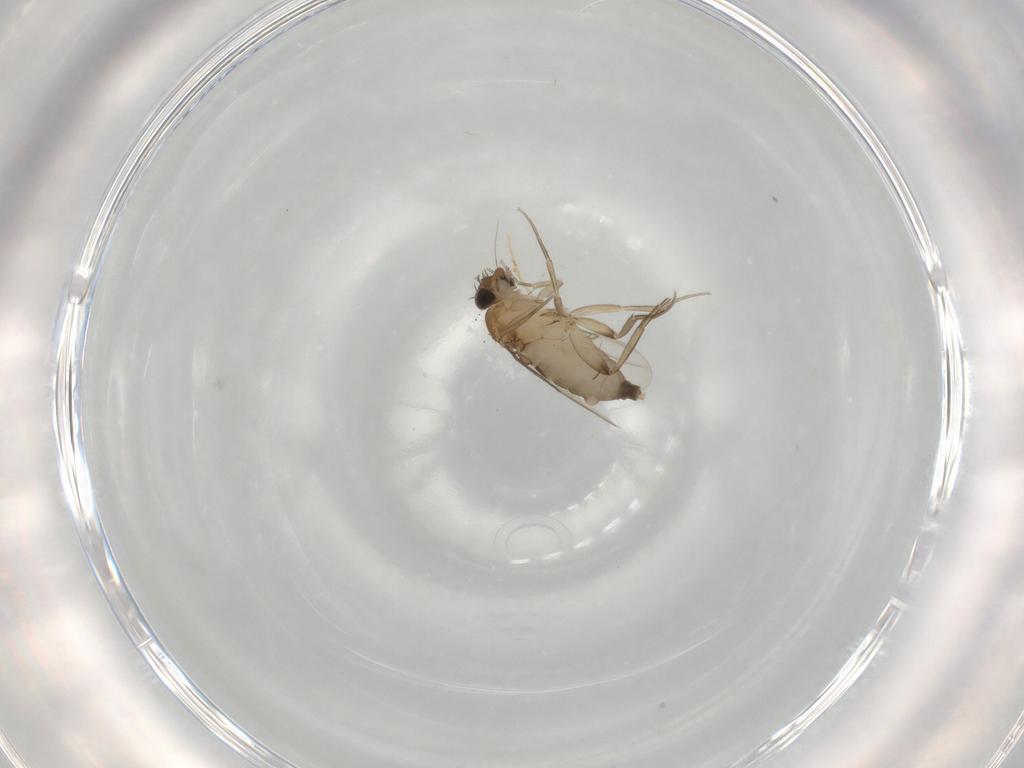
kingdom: Animalia
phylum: Arthropoda
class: Insecta
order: Diptera
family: Phoridae
